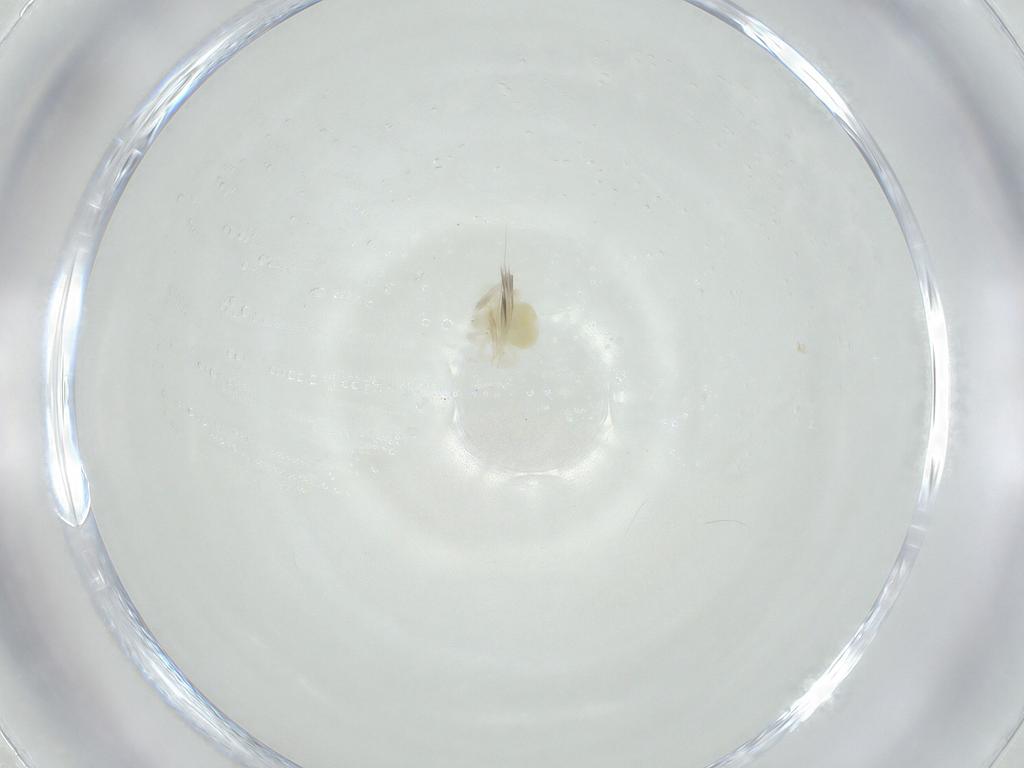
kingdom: Animalia
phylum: Arthropoda
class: Arachnida
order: Trombidiformes
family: Anystidae
